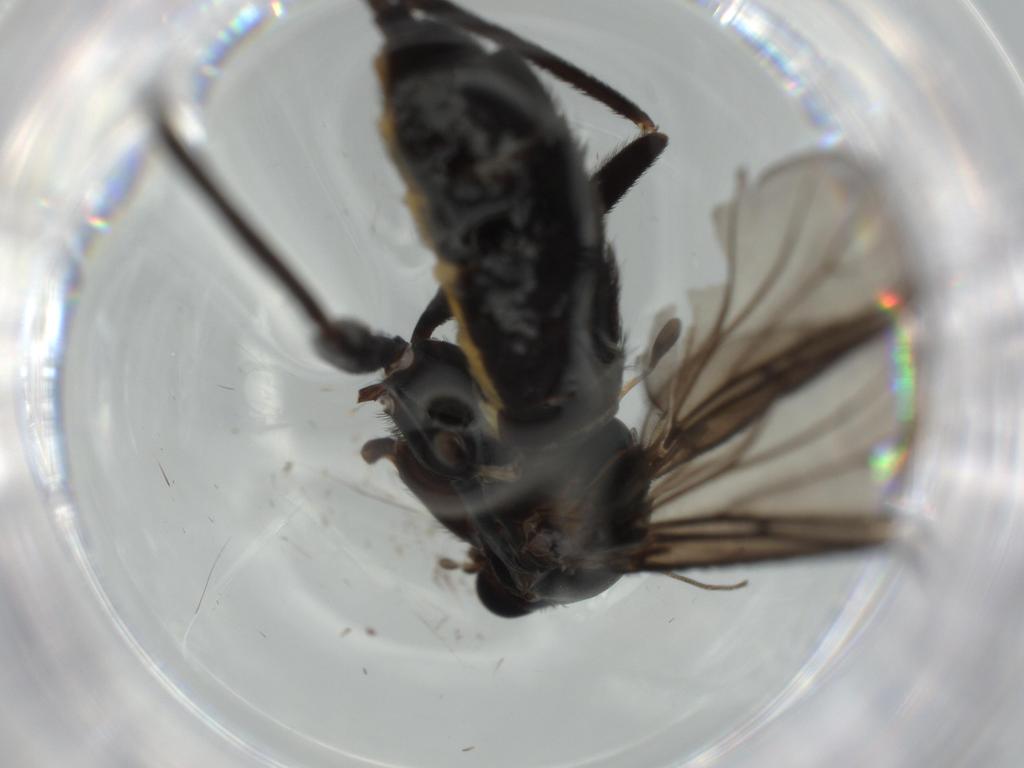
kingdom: Animalia
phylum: Arthropoda
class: Insecta
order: Diptera
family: Sciaridae
